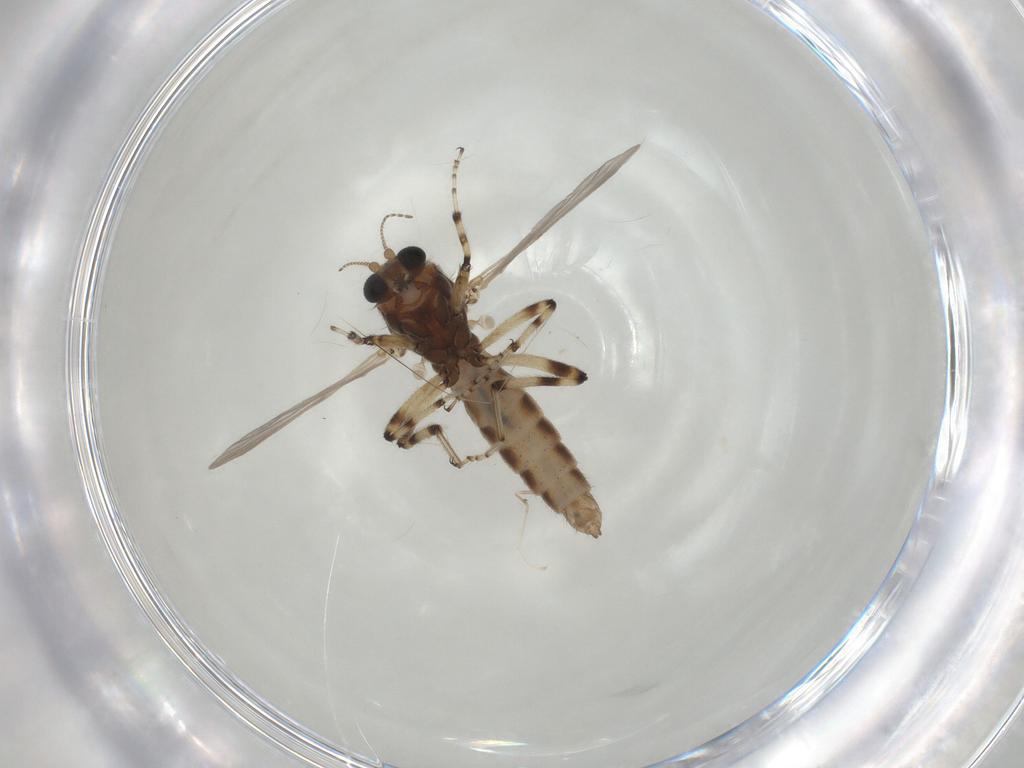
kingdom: Animalia
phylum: Arthropoda
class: Insecta
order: Diptera
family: Ceratopogonidae
